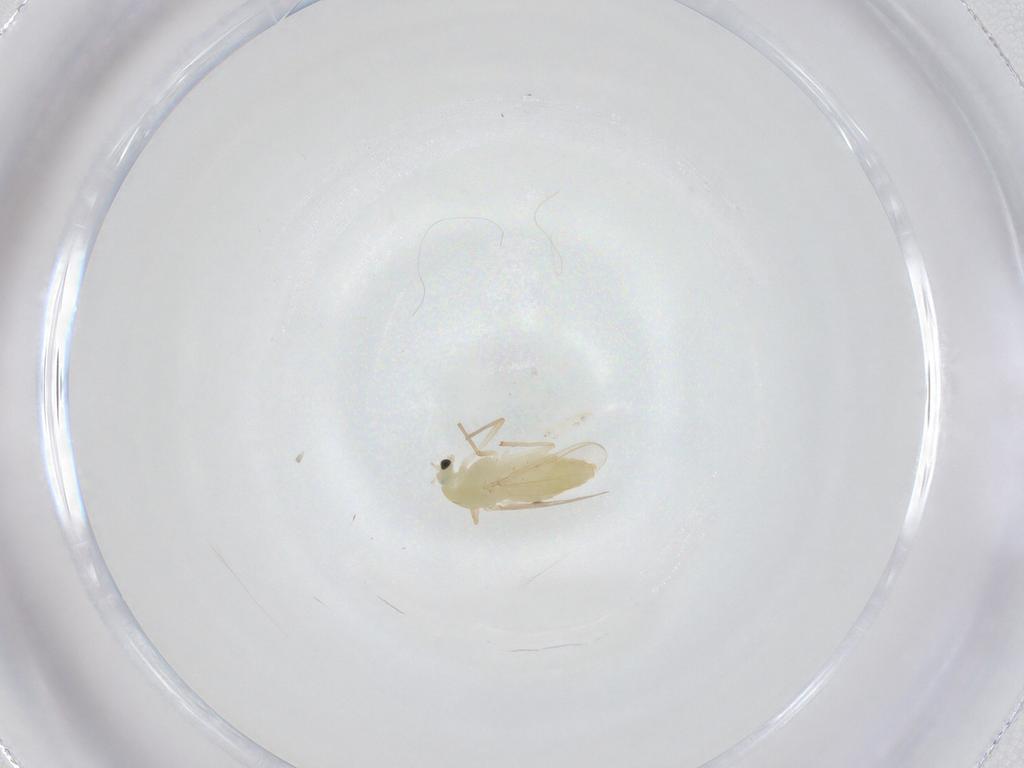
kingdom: Animalia
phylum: Arthropoda
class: Insecta
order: Diptera
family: Chironomidae
